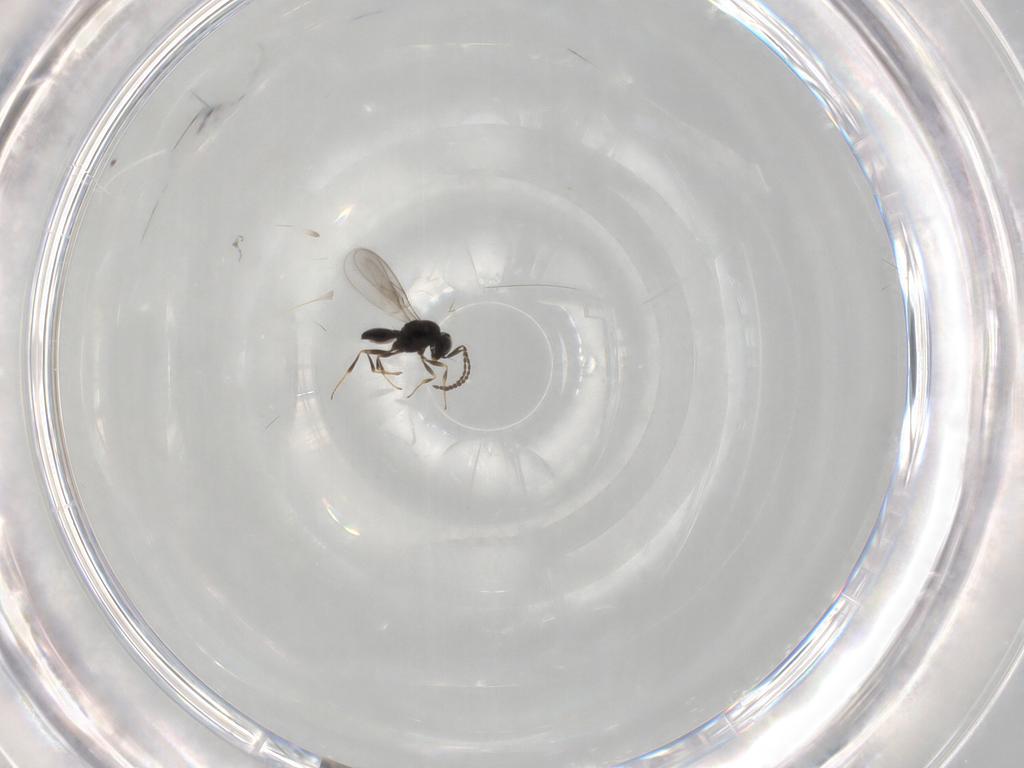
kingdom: Animalia
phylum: Arthropoda
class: Insecta
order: Hymenoptera
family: Scelionidae
